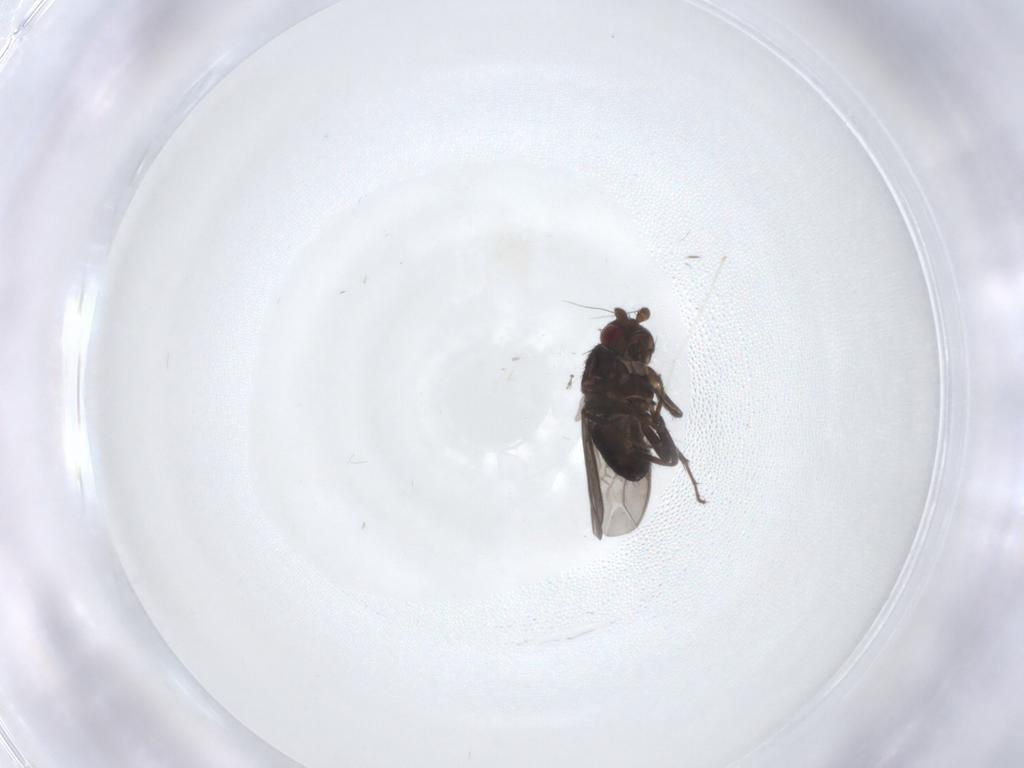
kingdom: Animalia
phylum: Arthropoda
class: Insecta
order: Diptera
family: Sphaeroceridae
